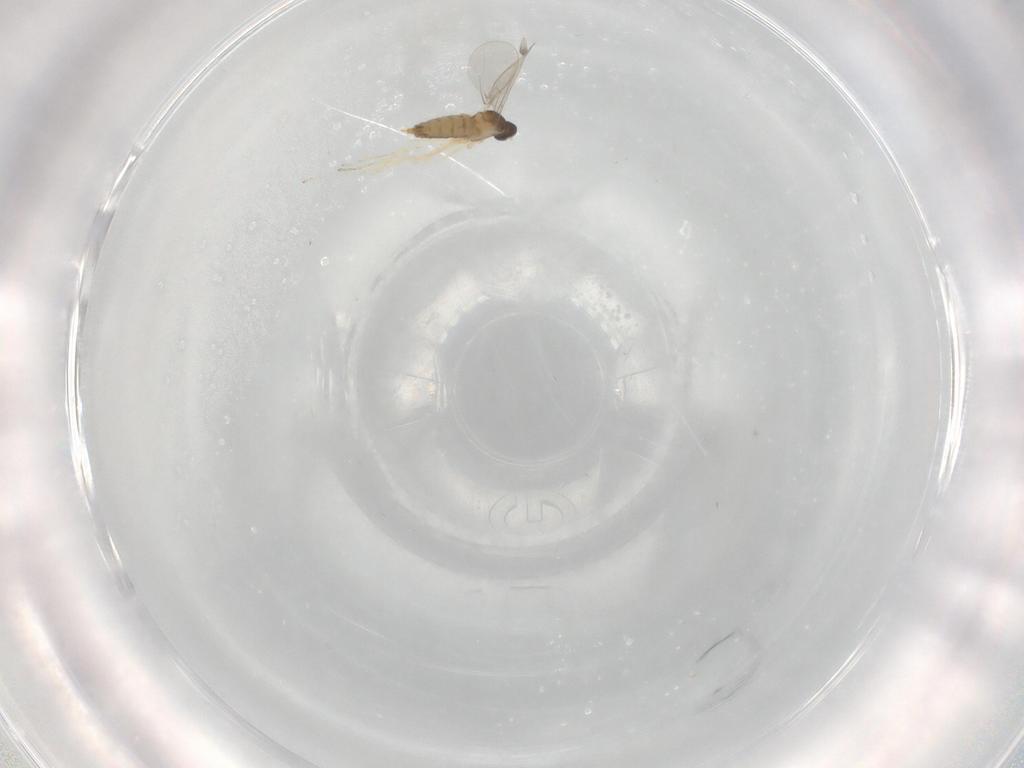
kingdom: Animalia
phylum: Arthropoda
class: Insecta
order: Diptera
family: Cecidomyiidae
